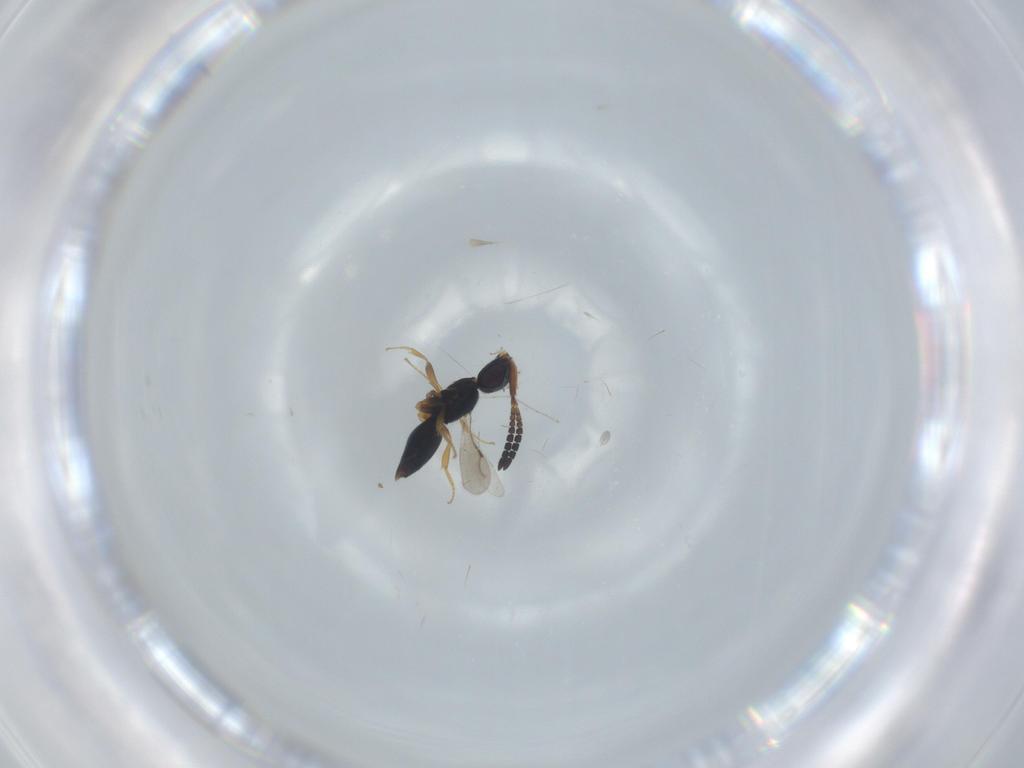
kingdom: Animalia
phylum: Arthropoda
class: Insecta
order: Hymenoptera
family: Ceraphronidae
